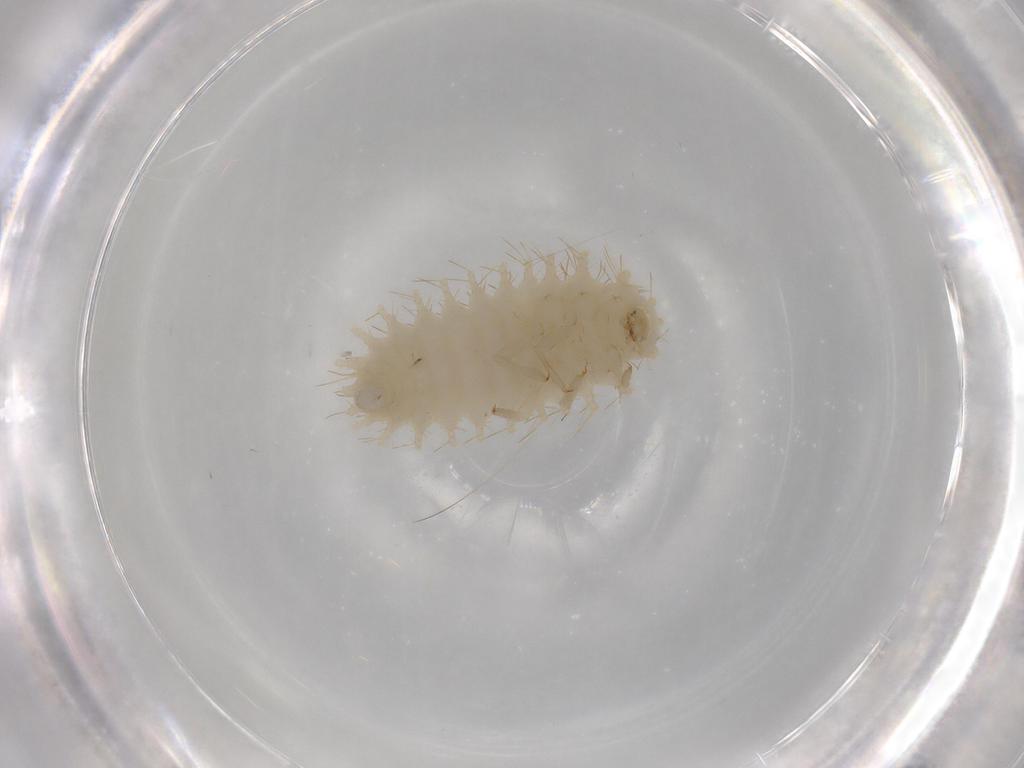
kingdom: Animalia
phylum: Arthropoda
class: Insecta
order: Coleoptera
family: Coccinellidae
